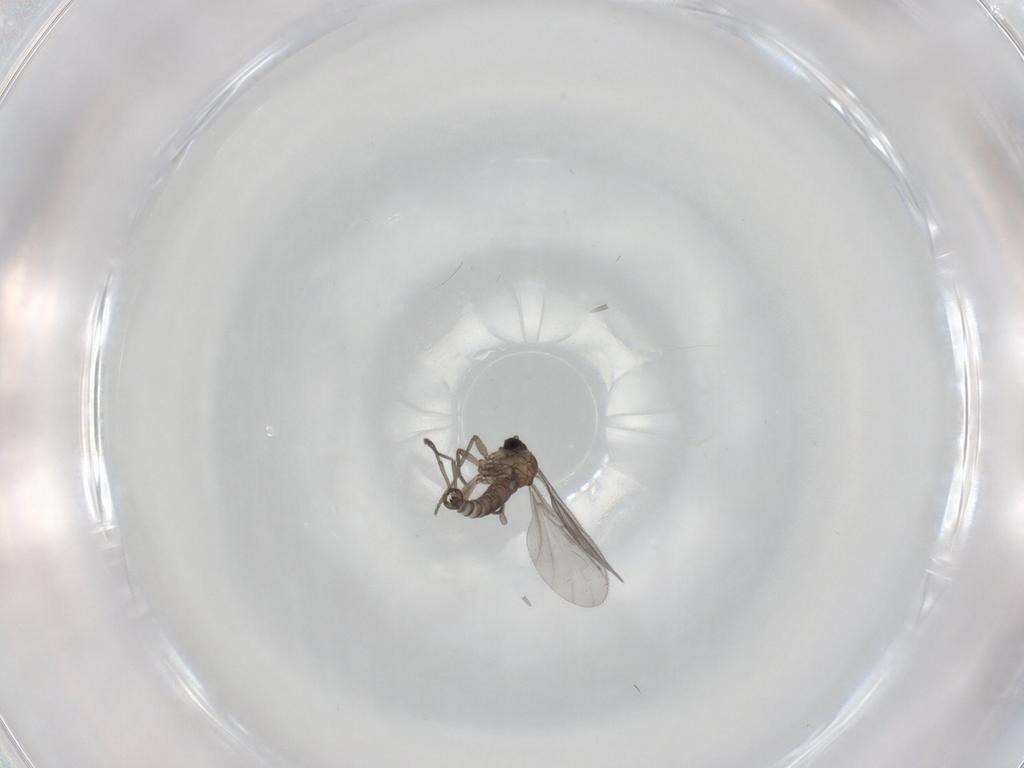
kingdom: Animalia
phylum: Arthropoda
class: Insecta
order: Diptera
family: Sciaridae
